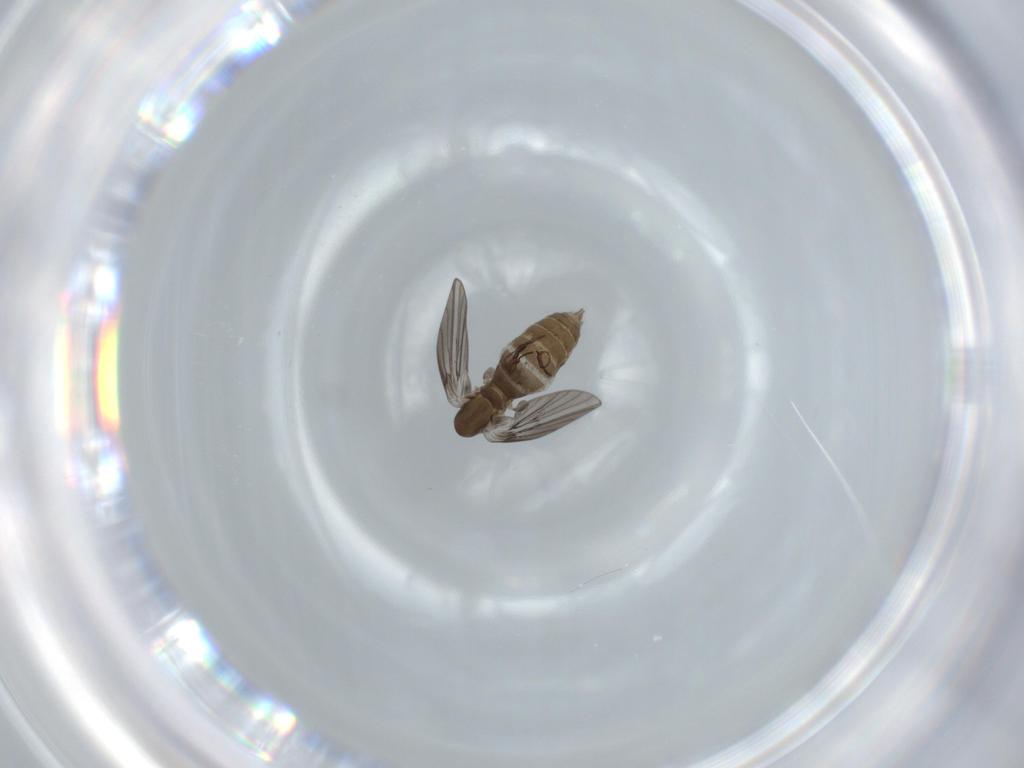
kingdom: Animalia
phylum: Arthropoda
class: Insecta
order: Diptera
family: Psychodidae
